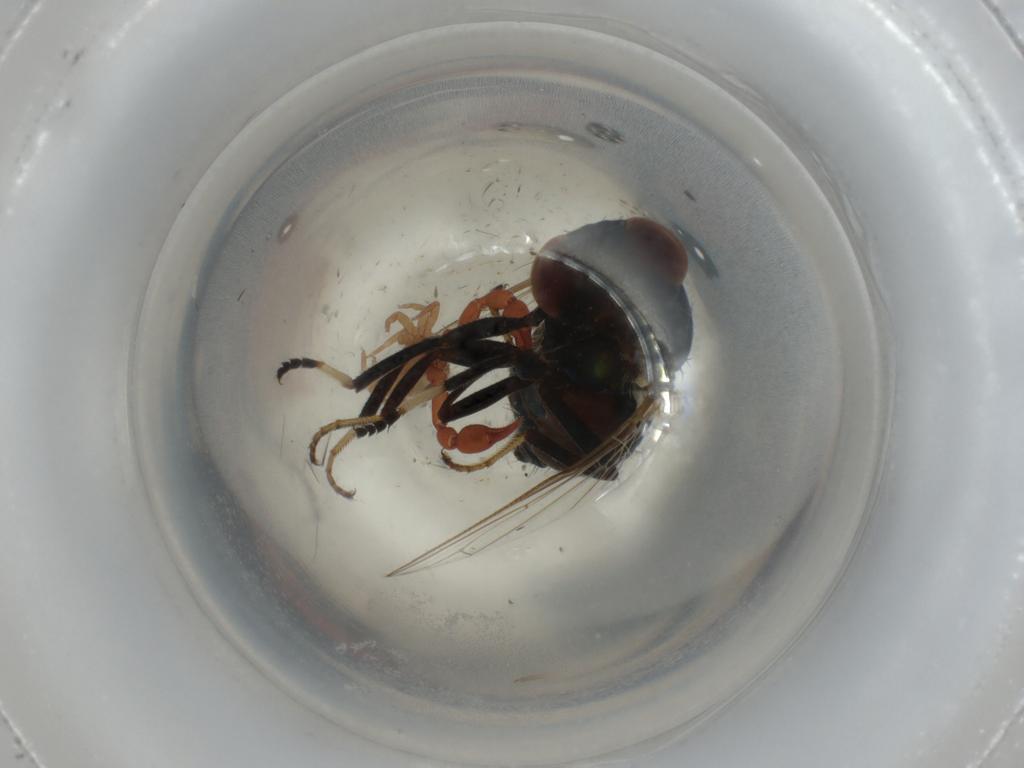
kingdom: Animalia
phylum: Arthropoda
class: Insecta
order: Diptera
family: Ulidiidae
